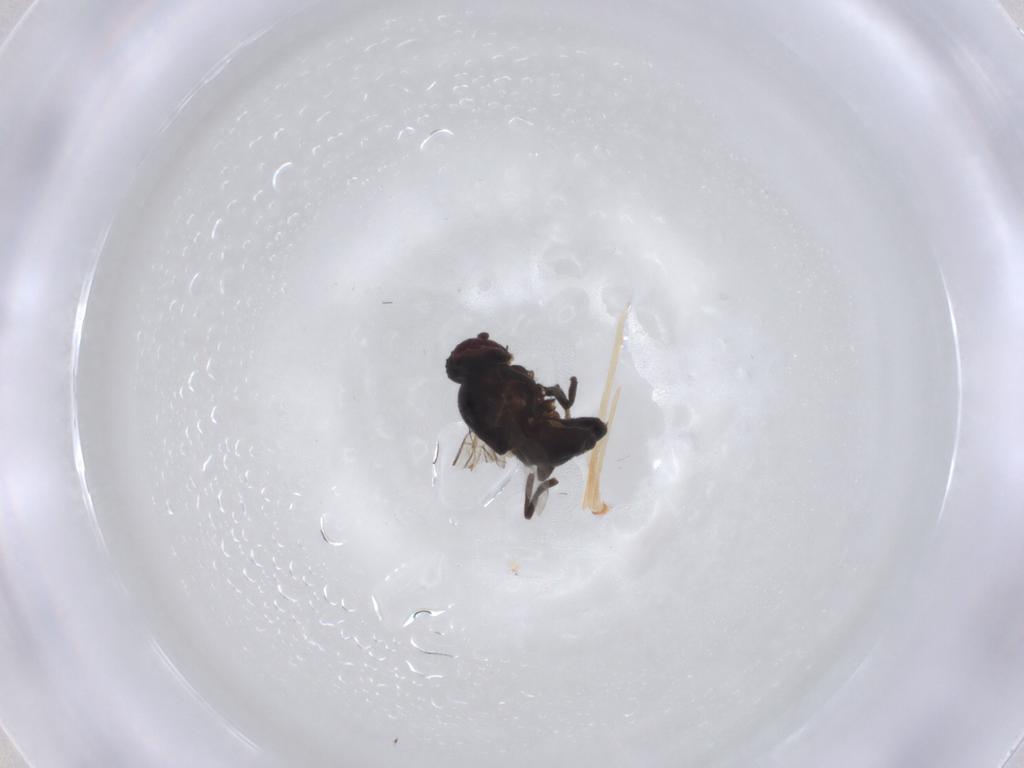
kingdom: Animalia
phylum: Arthropoda
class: Insecta
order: Diptera
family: Agromyzidae
